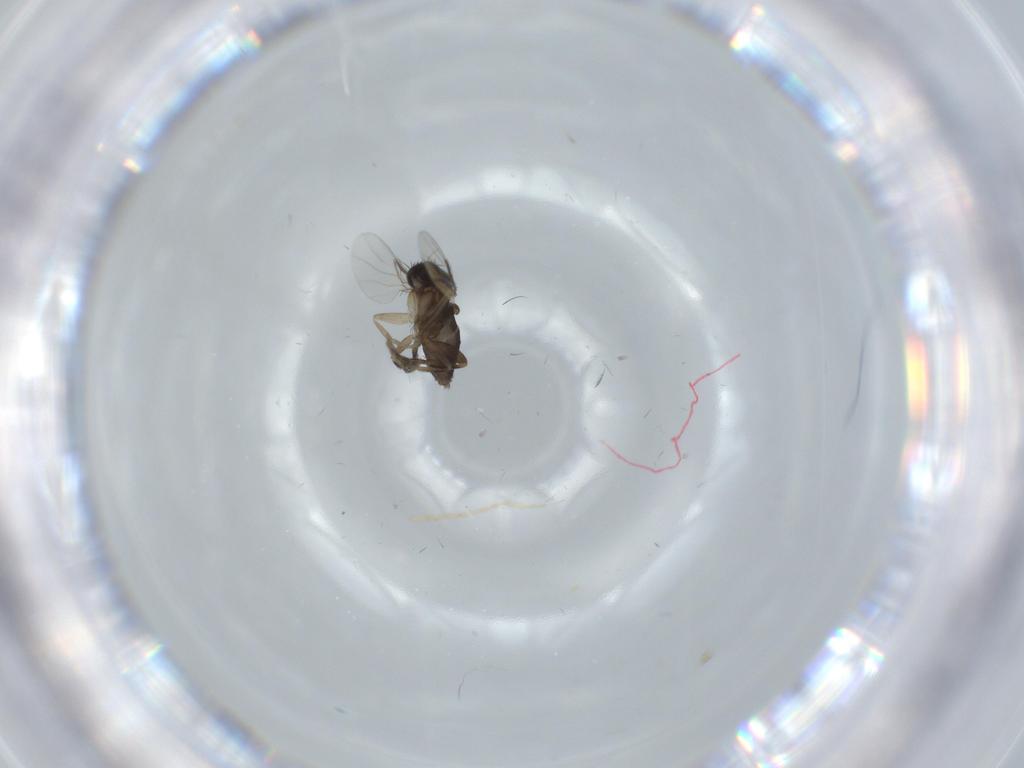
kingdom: Animalia
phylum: Arthropoda
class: Insecta
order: Diptera
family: Phoridae
